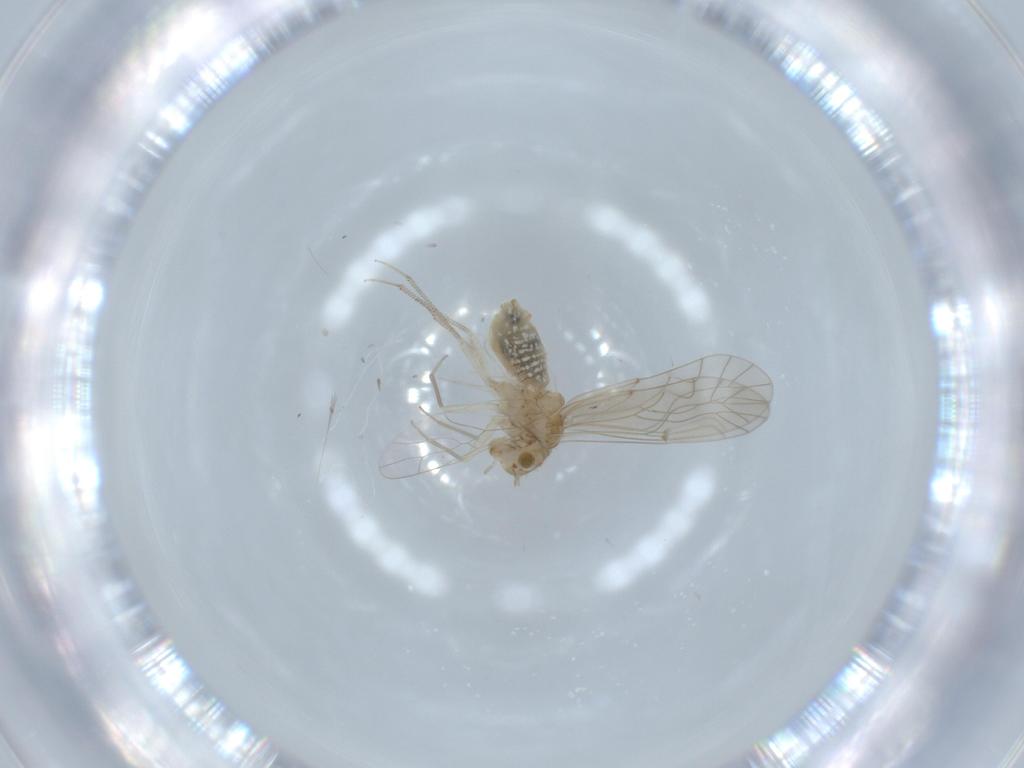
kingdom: Animalia
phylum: Arthropoda
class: Insecta
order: Psocodea
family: Lachesillidae
